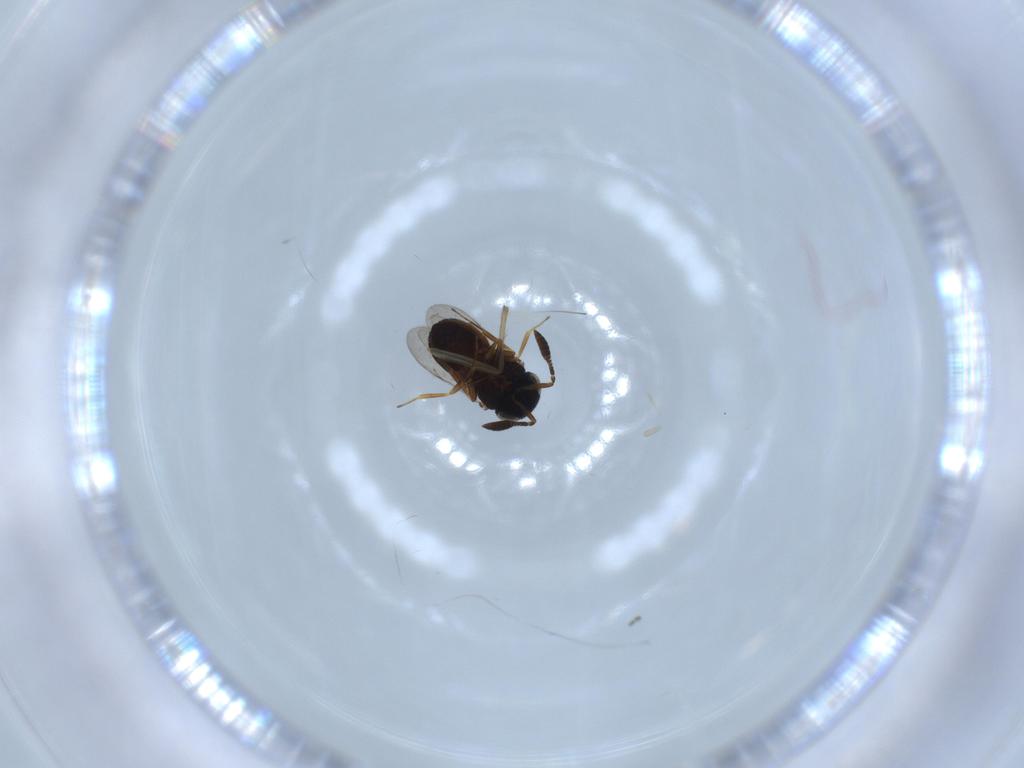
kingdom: Animalia
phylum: Arthropoda
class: Insecta
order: Coleoptera
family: Curculionidae
